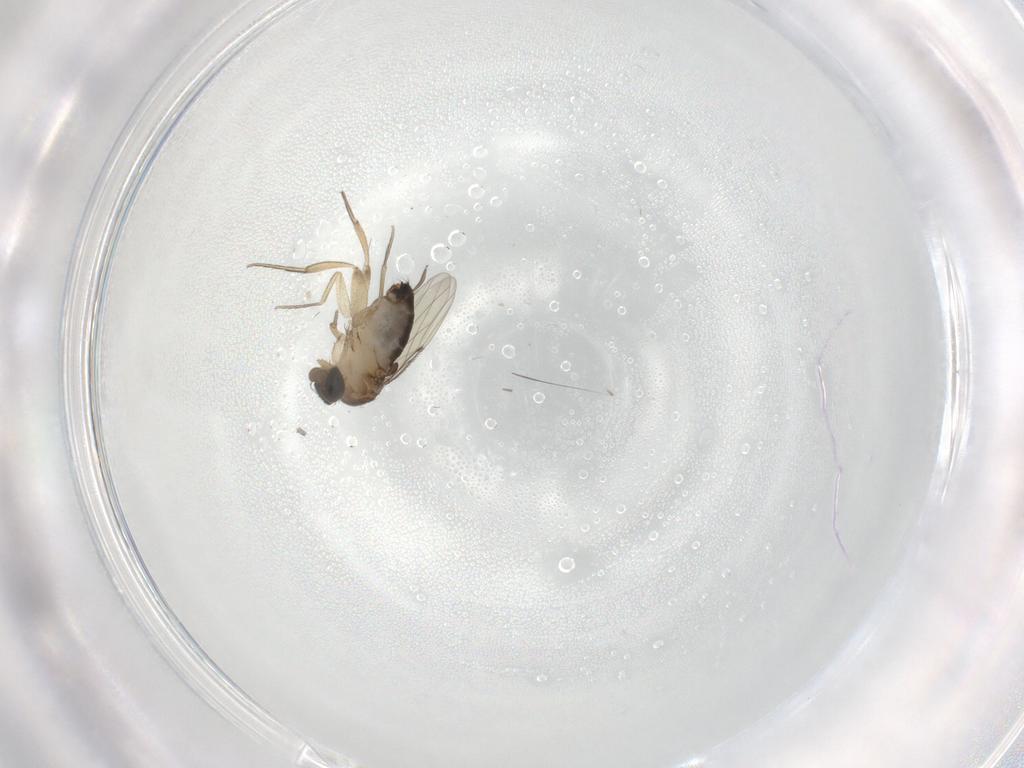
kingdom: Animalia
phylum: Arthropoda
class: Insecta
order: Diptera
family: Cecidomyiidae
